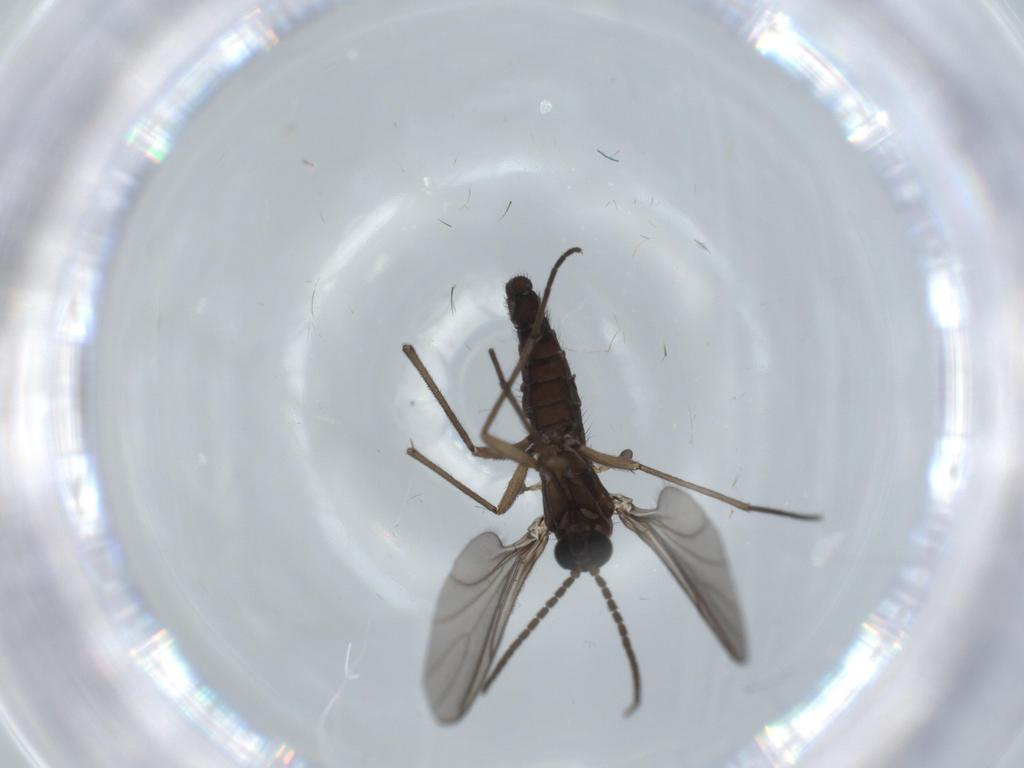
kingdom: Animalia
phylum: Arthropoda
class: Insecta
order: Diptera
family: Sciaridae
